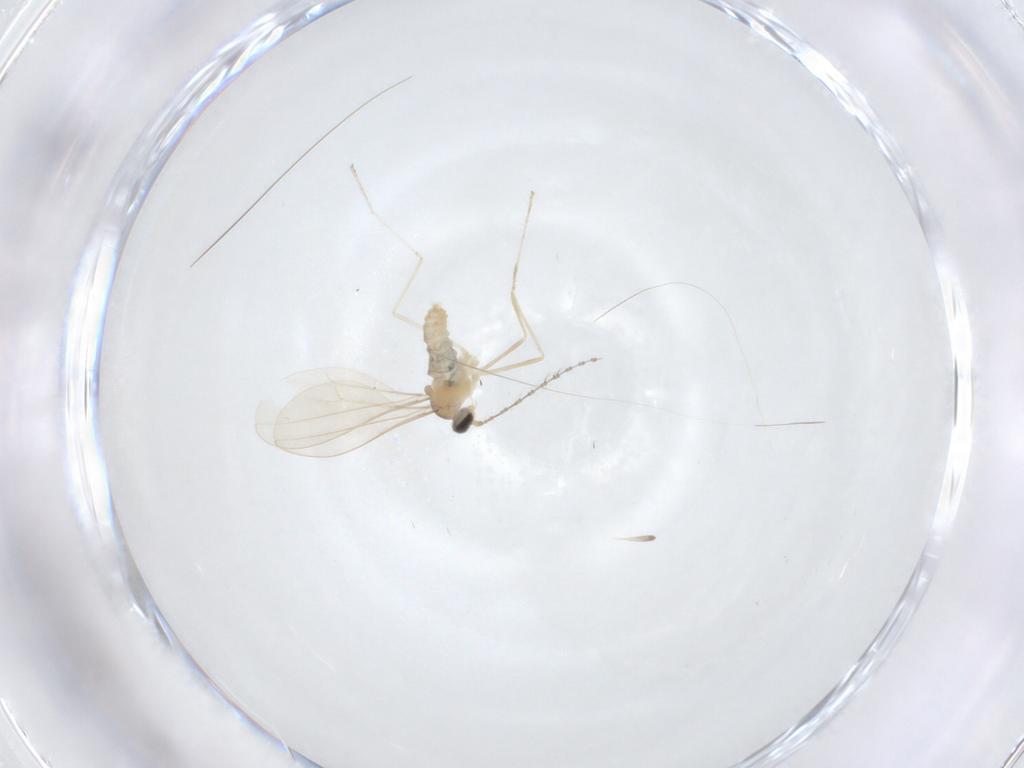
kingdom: Animalia
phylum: Arthropoda
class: Insecta
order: Diptera
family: Cecidomyiidae
